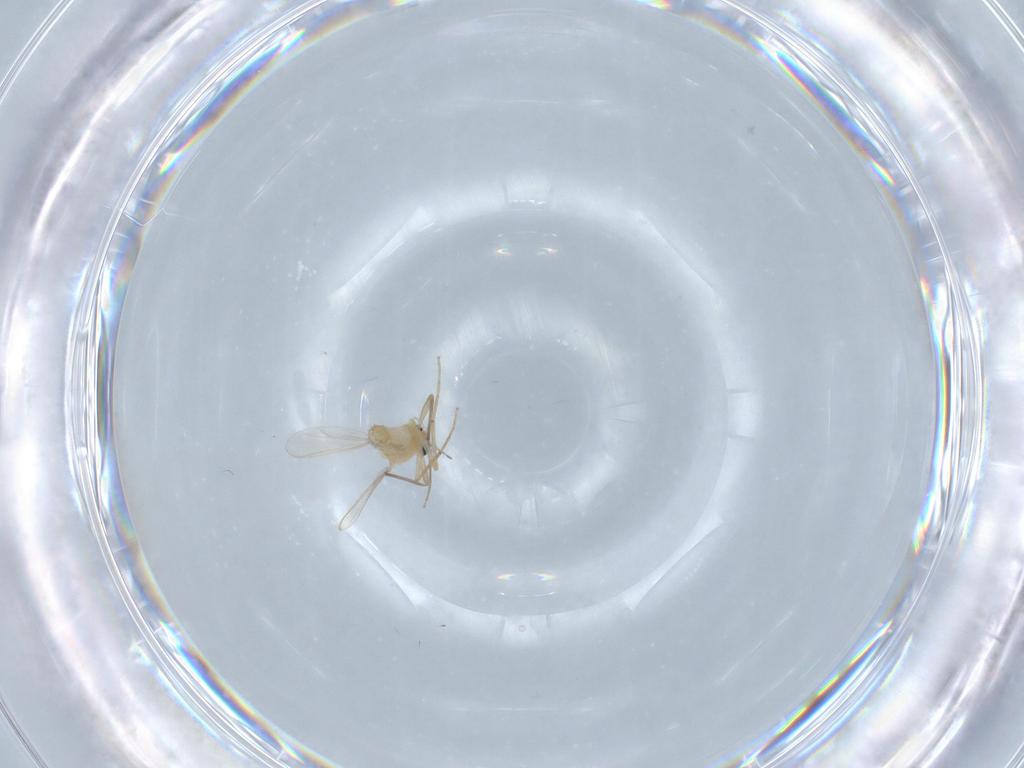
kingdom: Animalia
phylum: Arthropoda
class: Insecta
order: Diptera
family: Chironomidae
